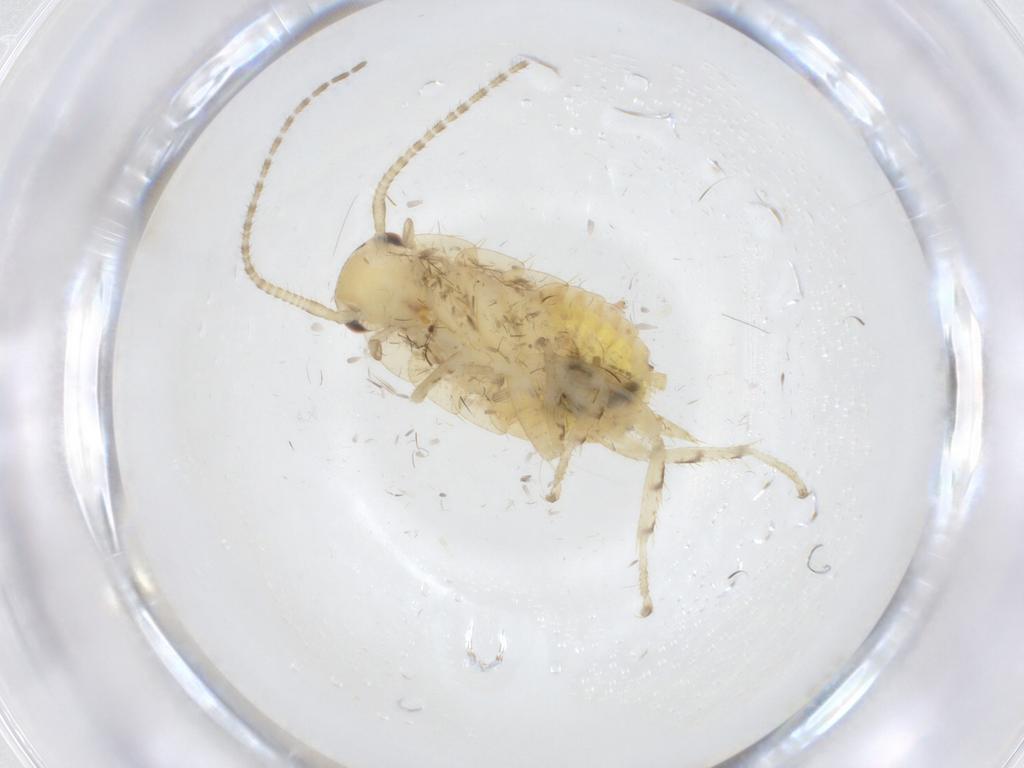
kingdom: Animalia
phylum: Arthropoda
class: Insecta
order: Blattodea
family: Ectobiidae
